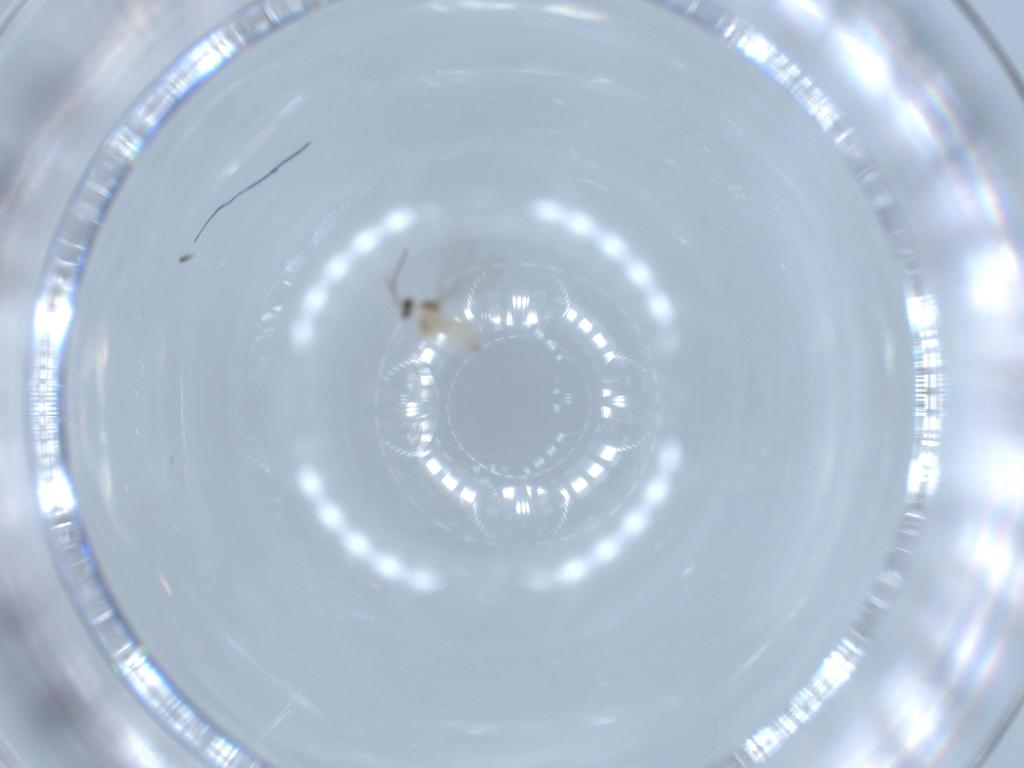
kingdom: Animalia
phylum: Arthropoda
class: Insecta
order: Diptera
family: Cecidomyiidae
